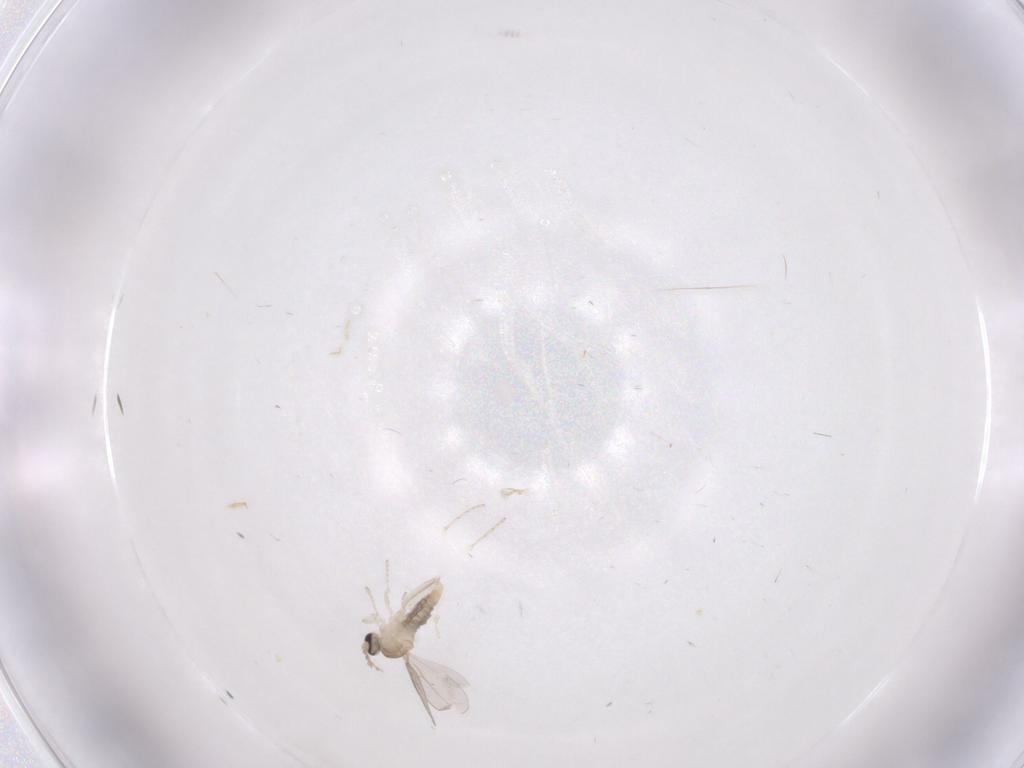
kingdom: Animalia
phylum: Arthropoda
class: Insecta
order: Diptera
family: Cecidomyiidae
